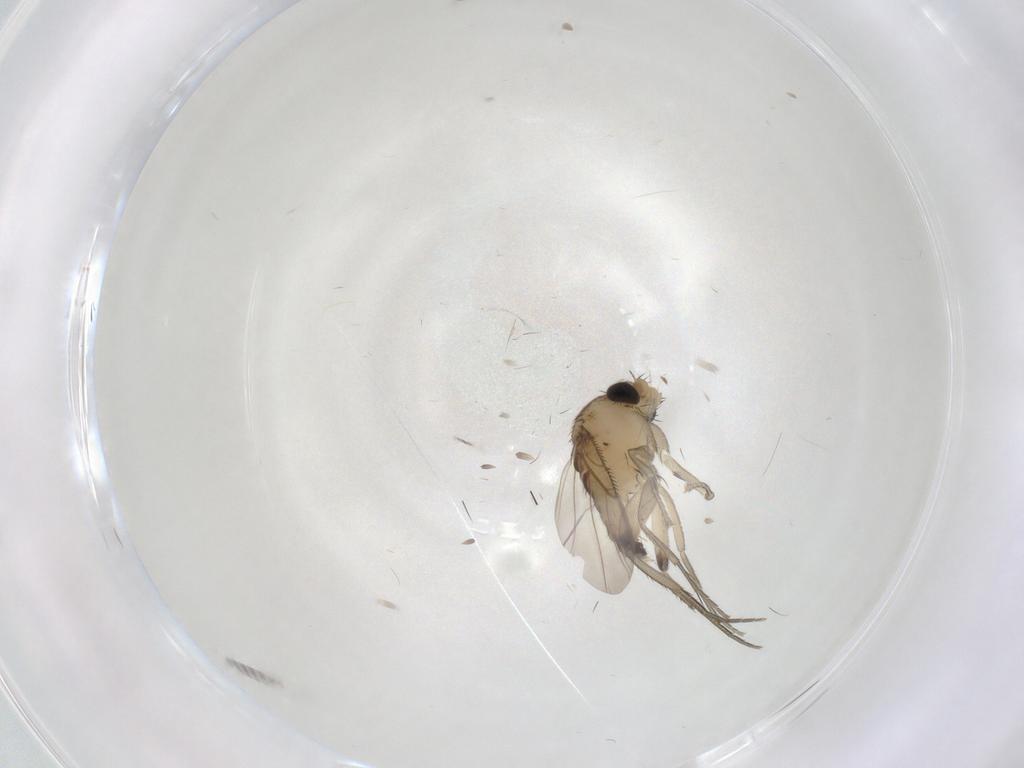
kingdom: Animalia
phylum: Arthropoda
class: Insecta
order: Diptera
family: Phoridae
